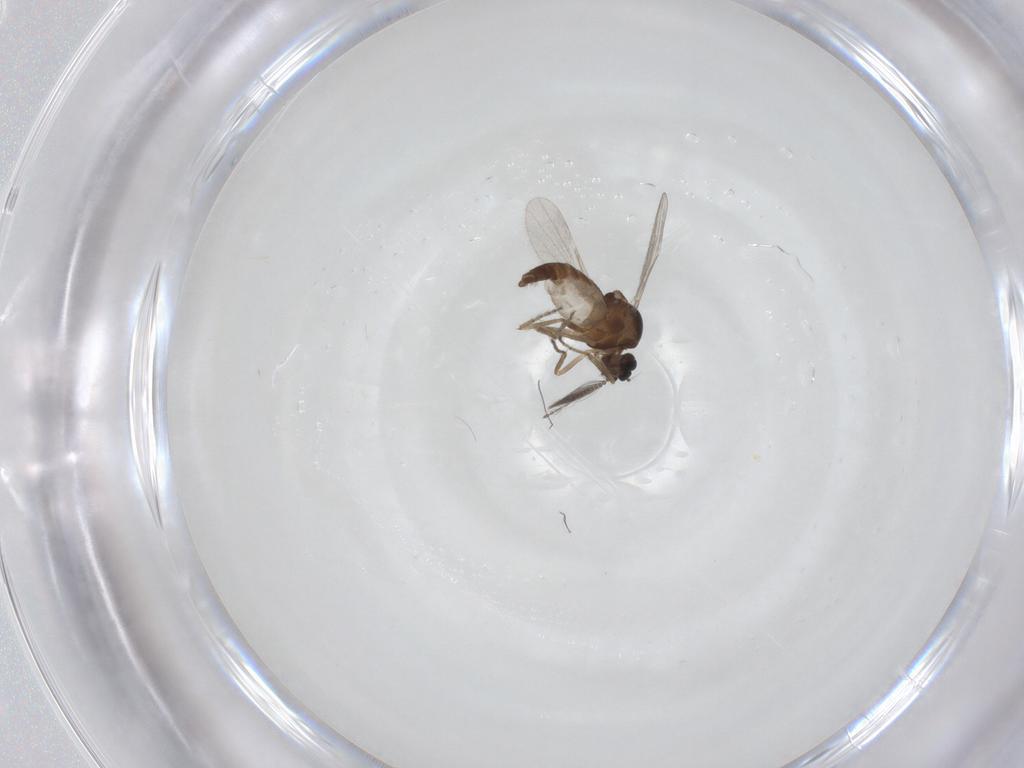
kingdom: Animalia
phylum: Arthropoda
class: Insecta
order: Diptera
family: Ceratopogonidae
